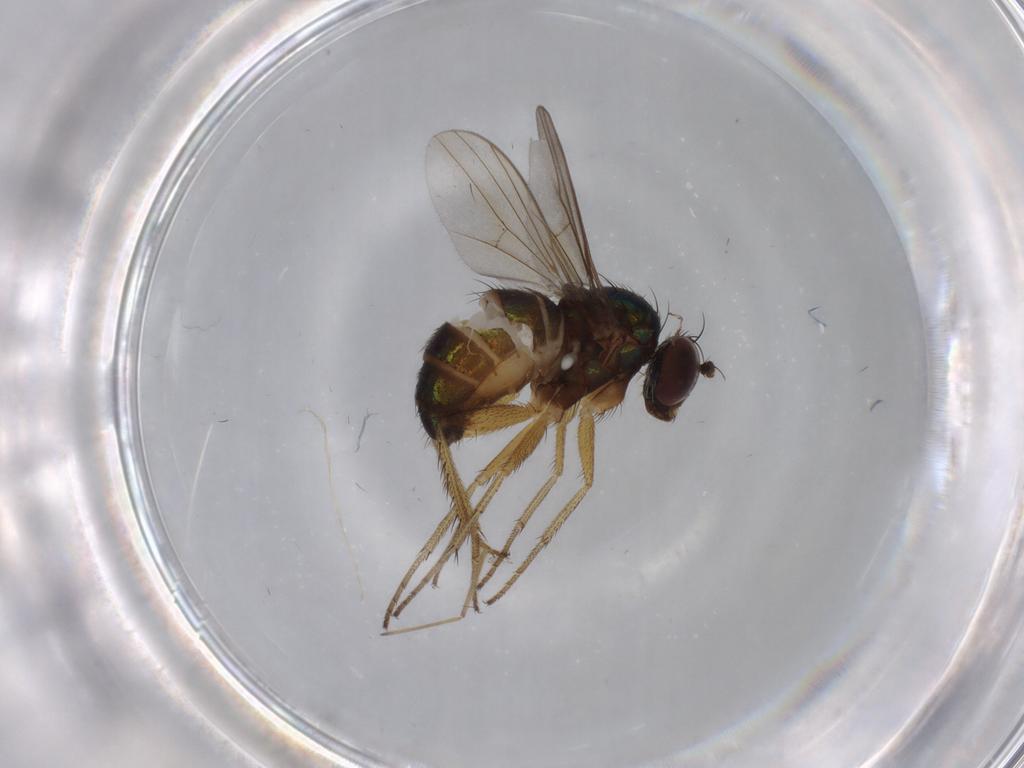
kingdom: Animalia
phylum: Arthropoda
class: Insecta
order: Diptera
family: Dolichopodidae
